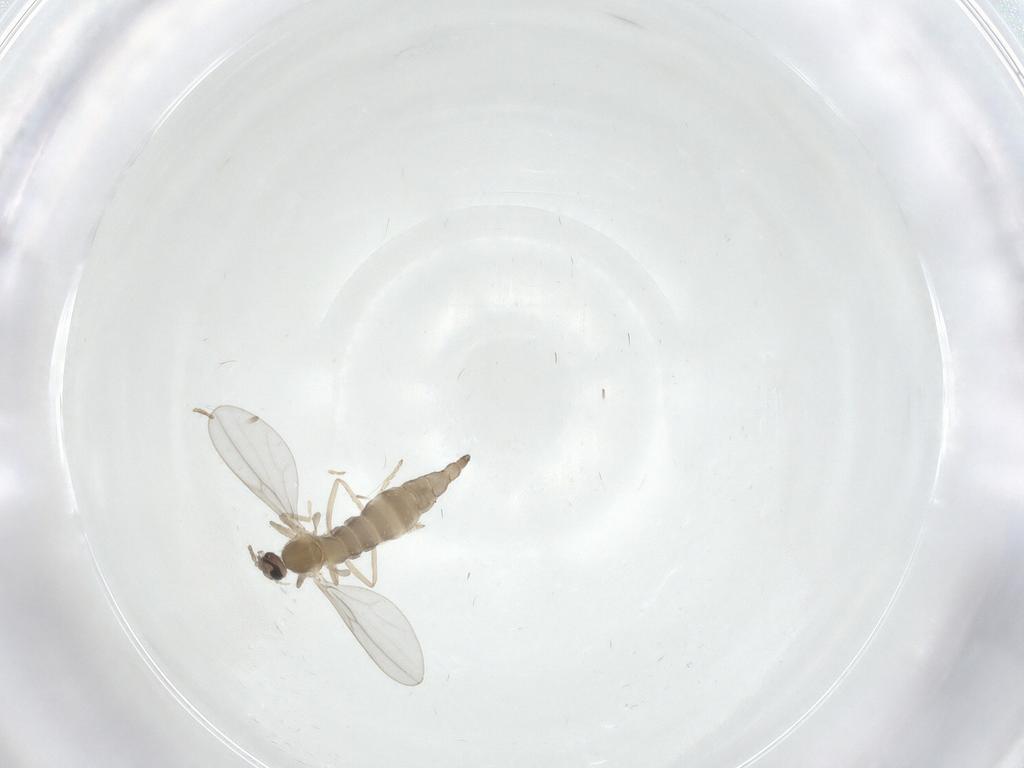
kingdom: Animalia
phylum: Arthropoda
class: Insecta
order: Diptera
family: Cecidomyiidae
